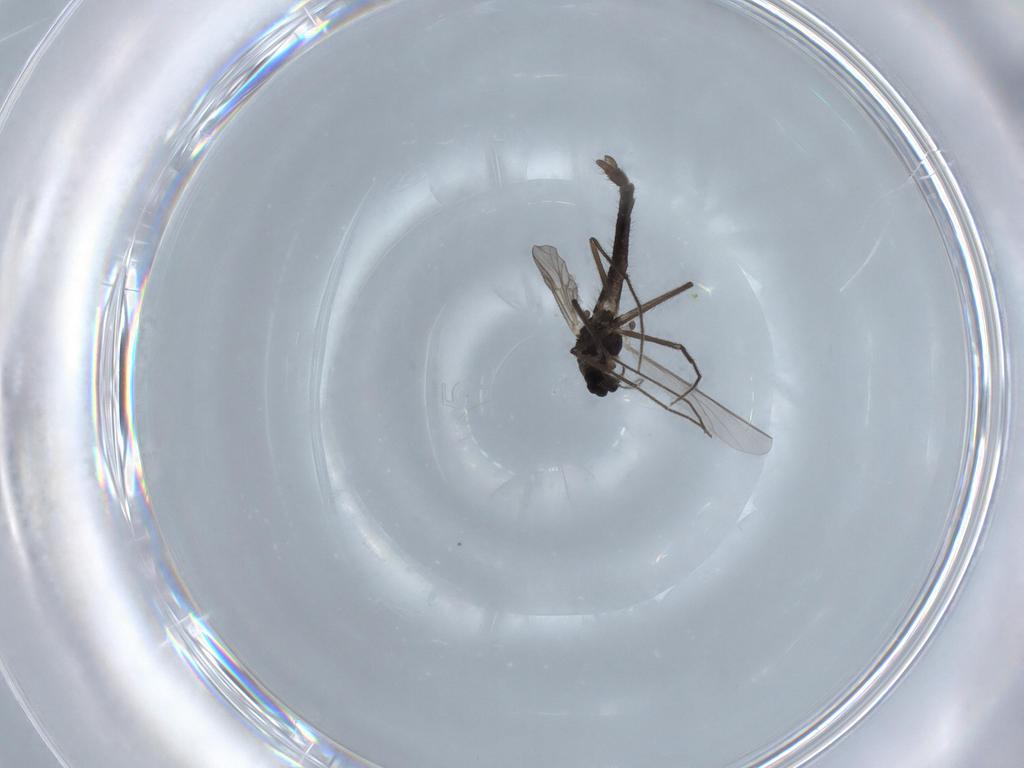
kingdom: Animalia
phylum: Arthropoda
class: Insecta
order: Diptera
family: Chironomidae
